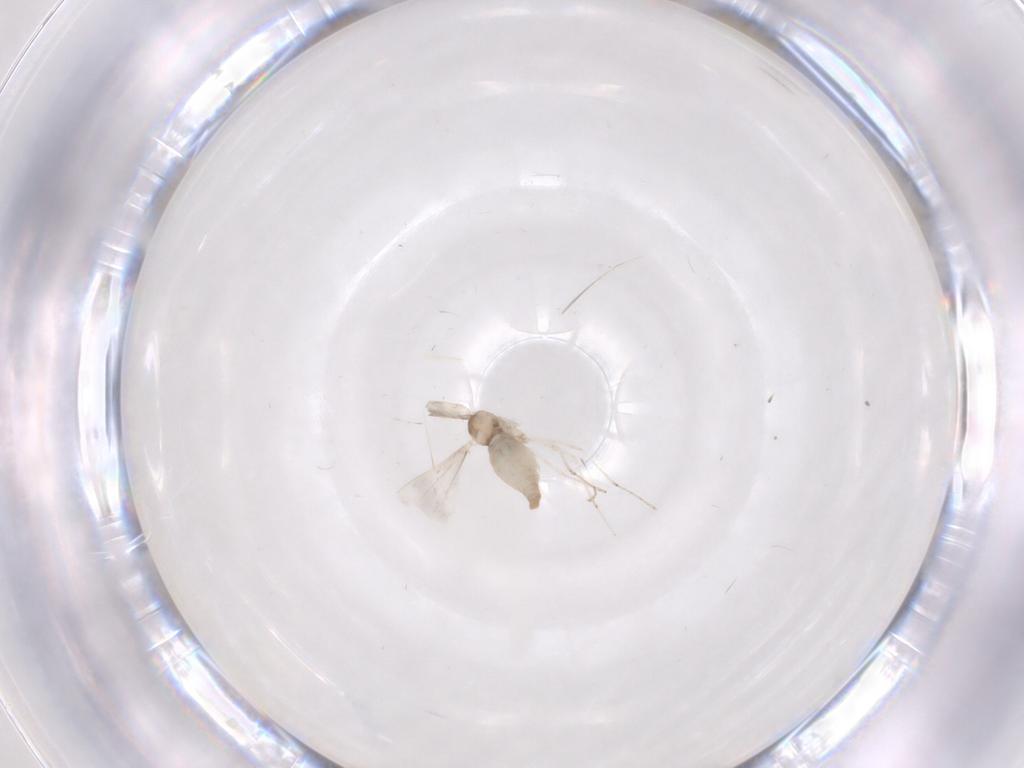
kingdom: Animalia
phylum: Arthropoda
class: Insecta
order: Diptera
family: Cecidomyiidae
